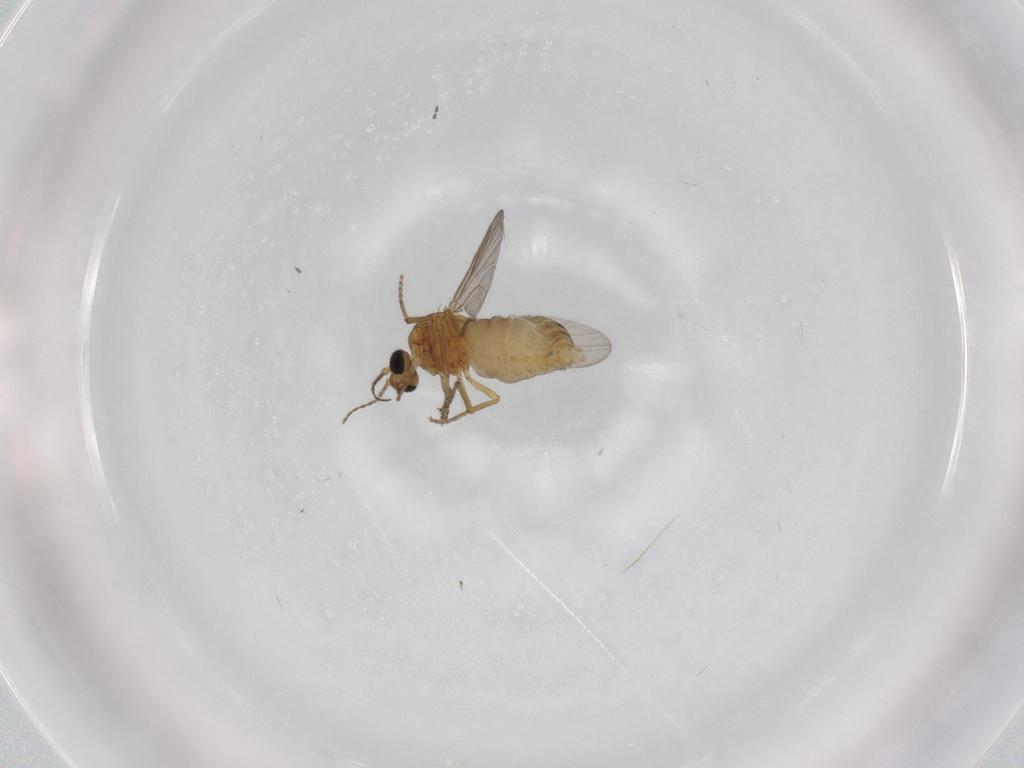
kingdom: Animalia
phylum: Arthropoda
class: Insecta
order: Diptera
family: Ceratopogonidae
